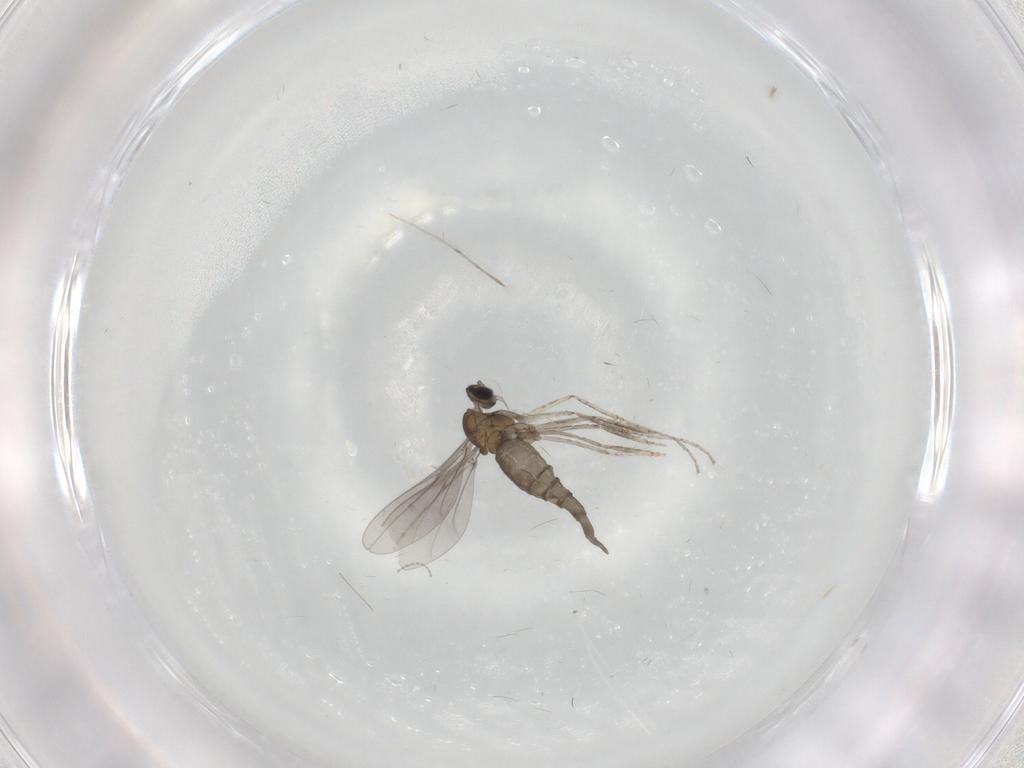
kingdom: Animalia
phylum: Arthropoda
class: Insecta
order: Diptera
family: Chironomidae
